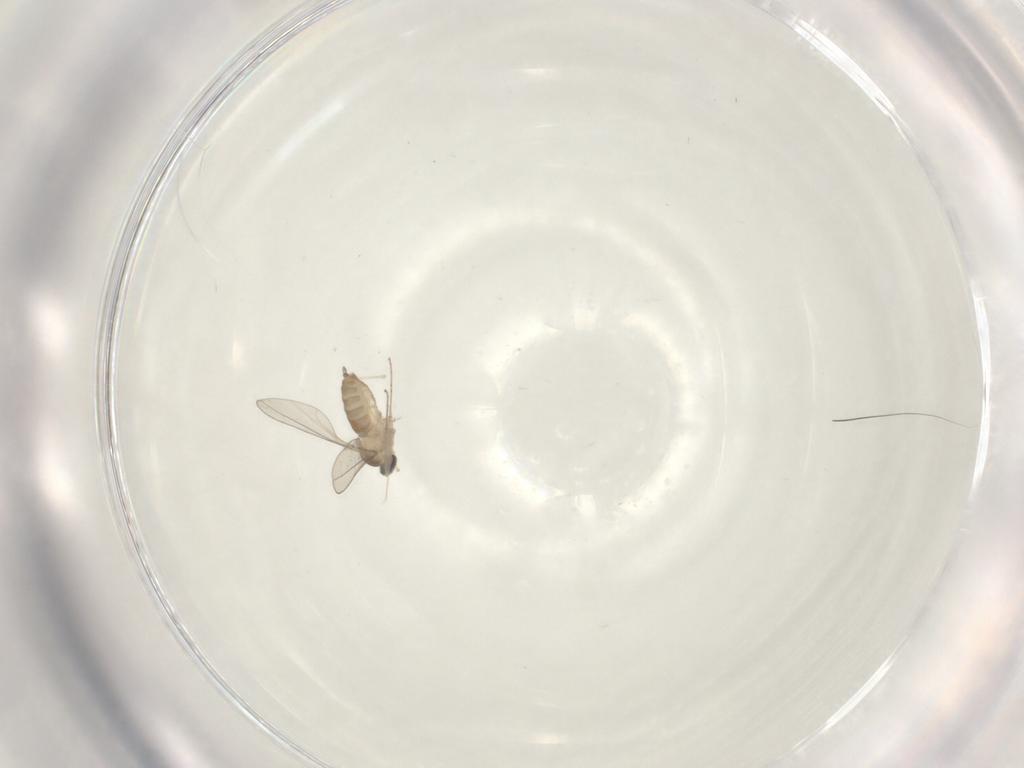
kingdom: Animalia
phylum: Arthropoda
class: Insecta
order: Diptera
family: Cecidomyiidae
